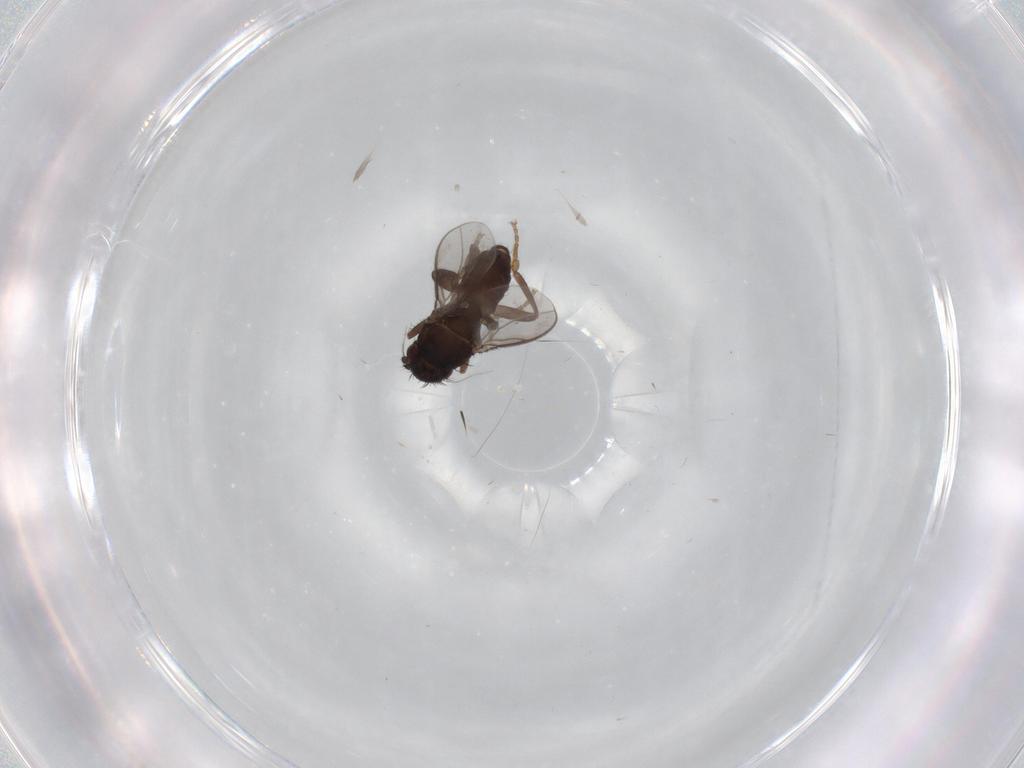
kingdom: Animalia
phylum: Arthropoda
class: Insecta
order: Diptera
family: Sphaeroceridae
